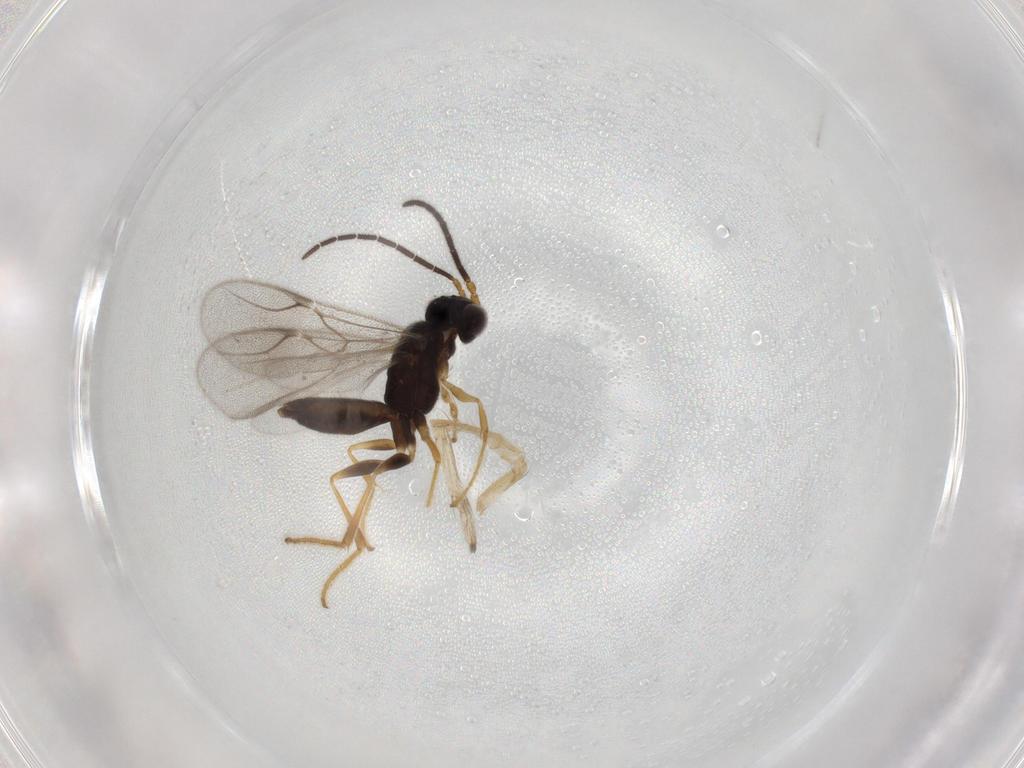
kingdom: Animalia
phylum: Arthropoda
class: Insecta
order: Hymenoptera
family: Dryinidae
